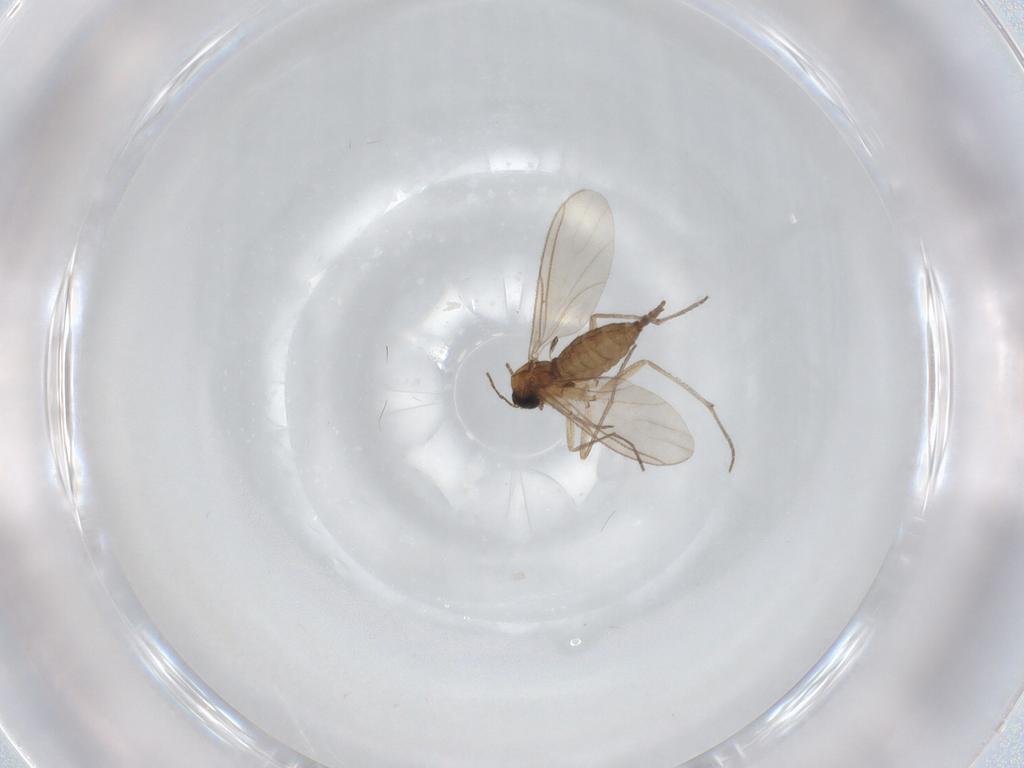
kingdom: Animalia
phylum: Arthropoda
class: Insecta
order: Diptera
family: Sciaridae
